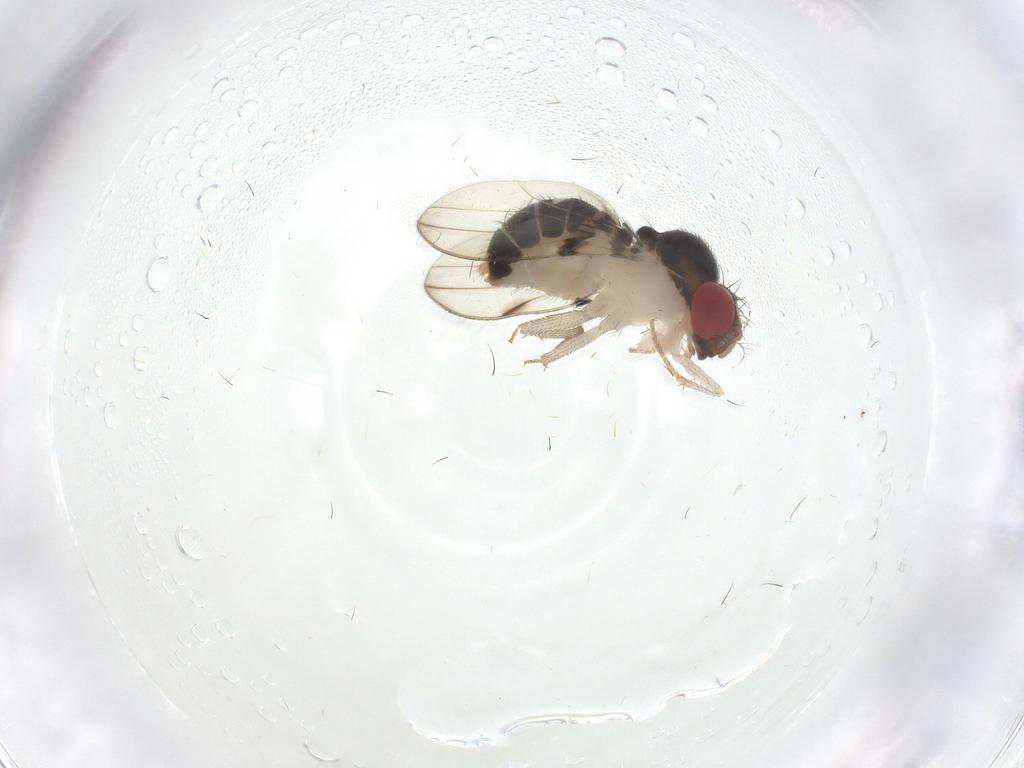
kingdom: Animalia
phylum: Arthropoda
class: Insecta
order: Diptera
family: Drosophilidae
